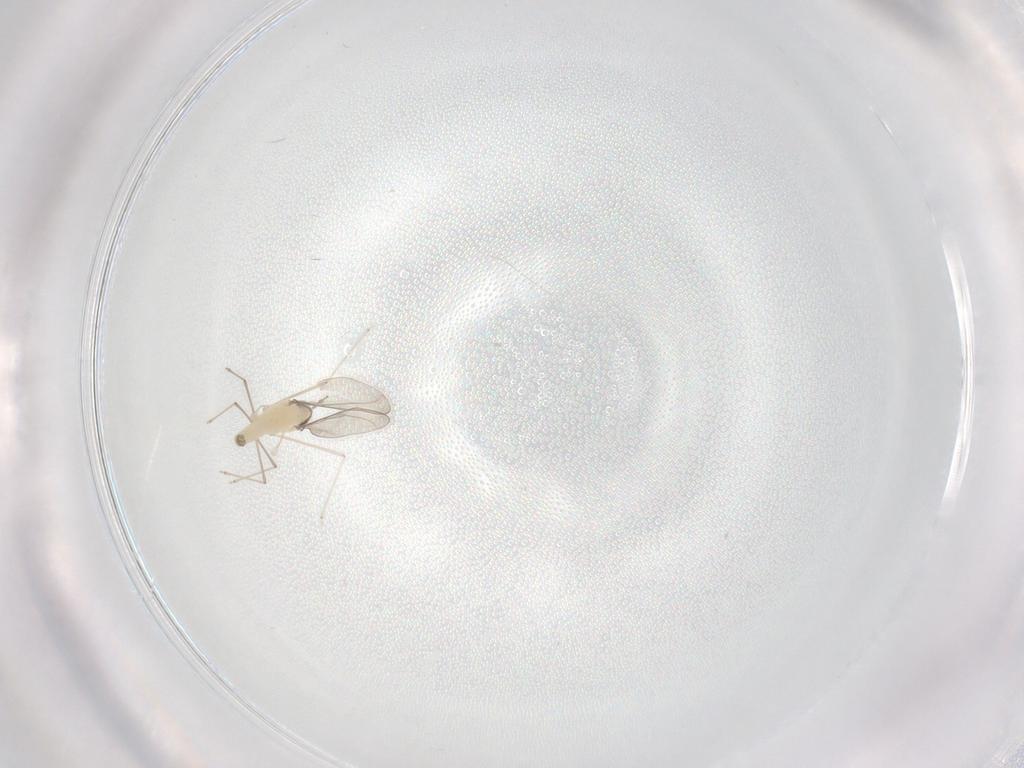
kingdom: Animalia
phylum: Arthropoda
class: Insecta
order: Diptera
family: Cecidomyiidae
